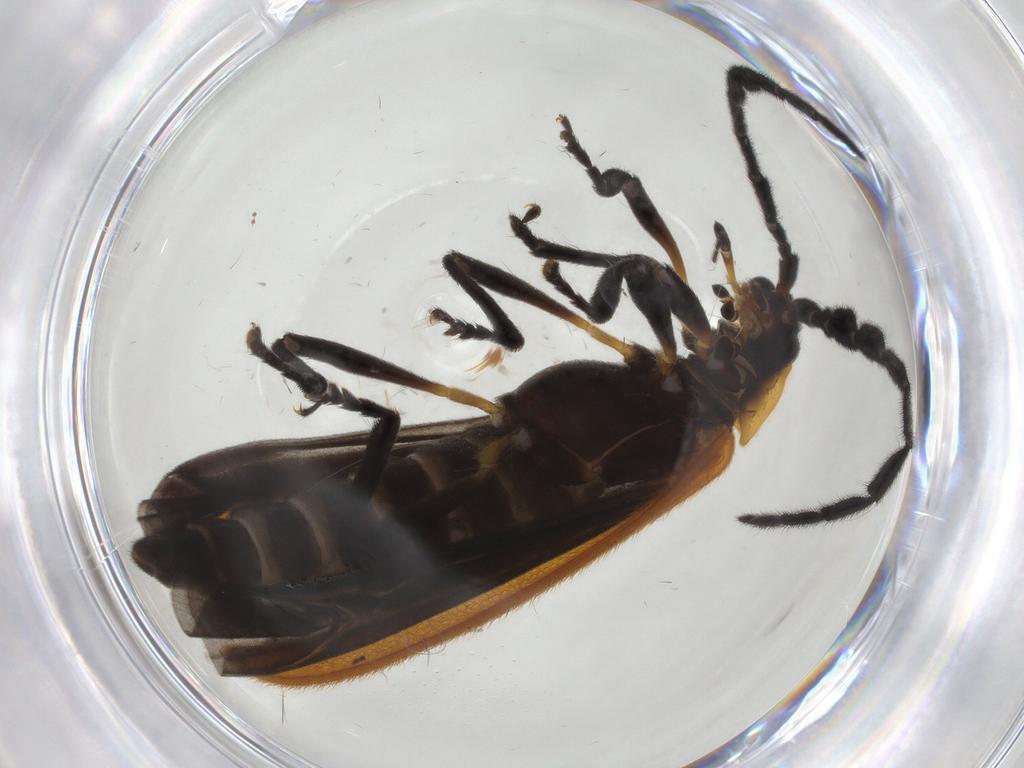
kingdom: Animalia
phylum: Arthropoda
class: Insecta
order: Coleoptera
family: Lycidae
